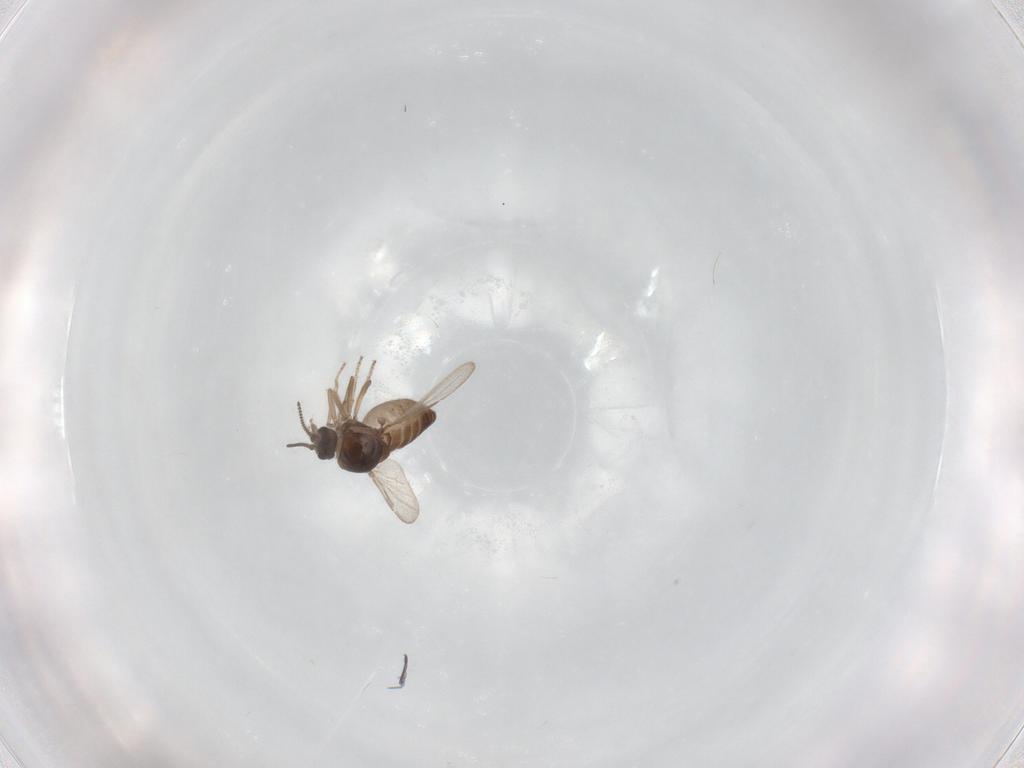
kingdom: Animalia
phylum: Arthropoda
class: Insecta
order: Diptera
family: Ceratopogonidae
